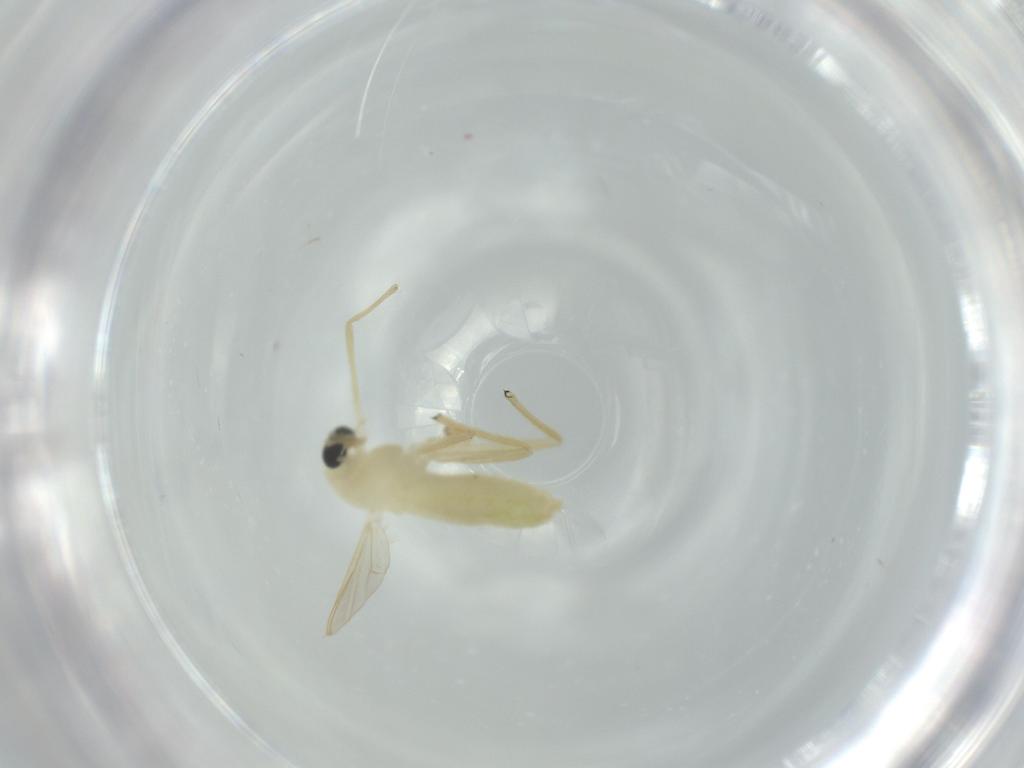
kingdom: Animalia
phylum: Arthropoda
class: Insecta
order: Diptera
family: Chironomidae
